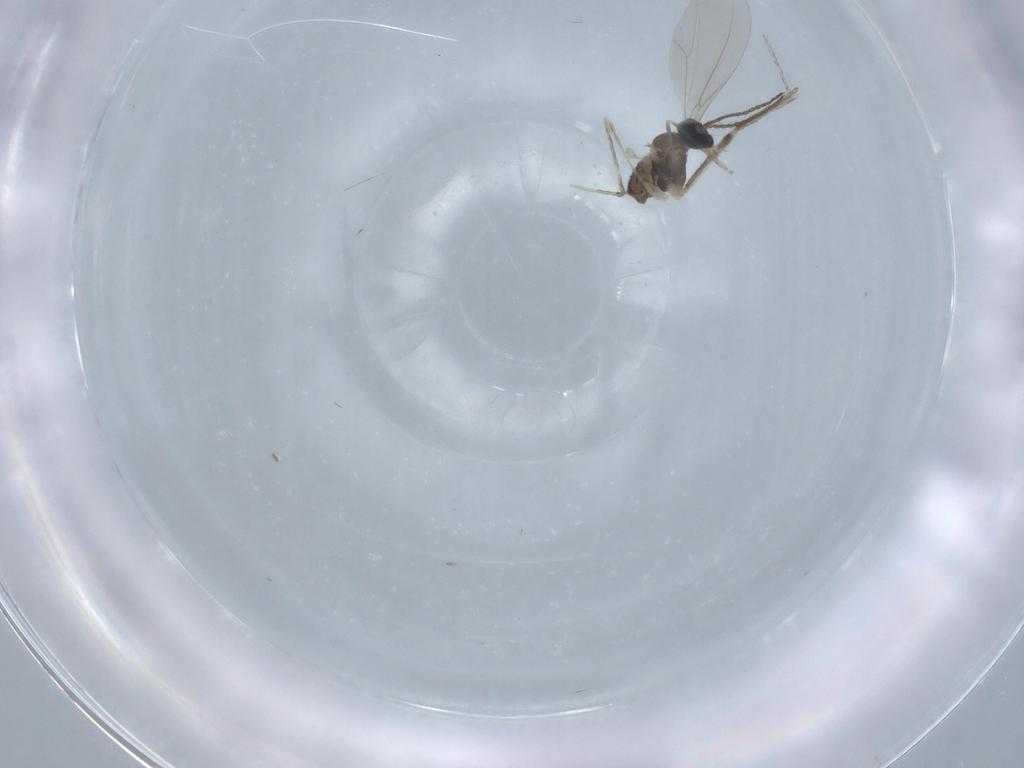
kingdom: Animalia
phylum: Arthropoda
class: Insecta
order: Diptera
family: Cecidomyiidae
